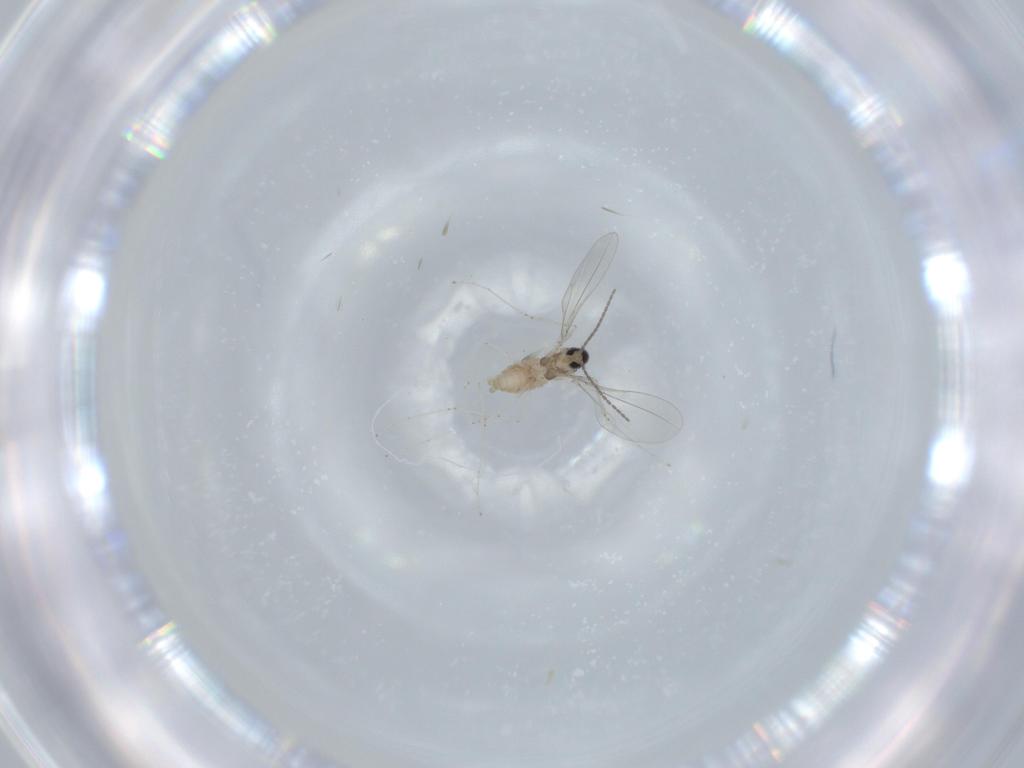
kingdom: Animalia
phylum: Arthropoda
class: Insecta
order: Diptera
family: Cecidomyiidae
